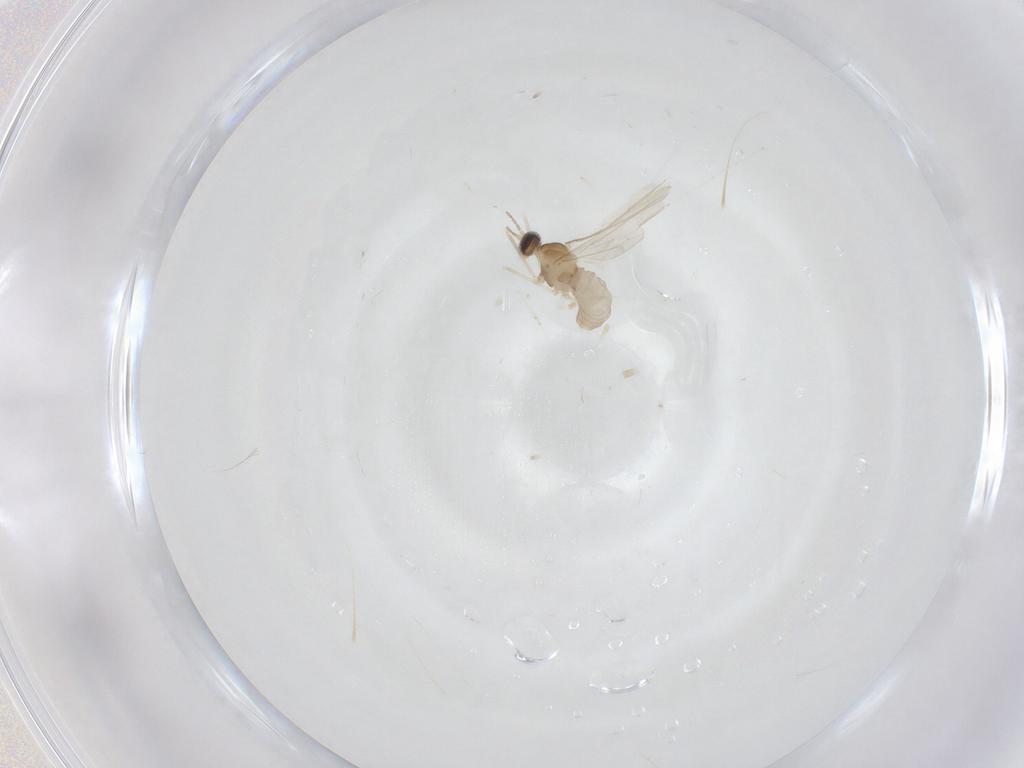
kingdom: Animalia
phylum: Arthropoda
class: Insecta
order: Diptera
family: Cecidomyiidae
